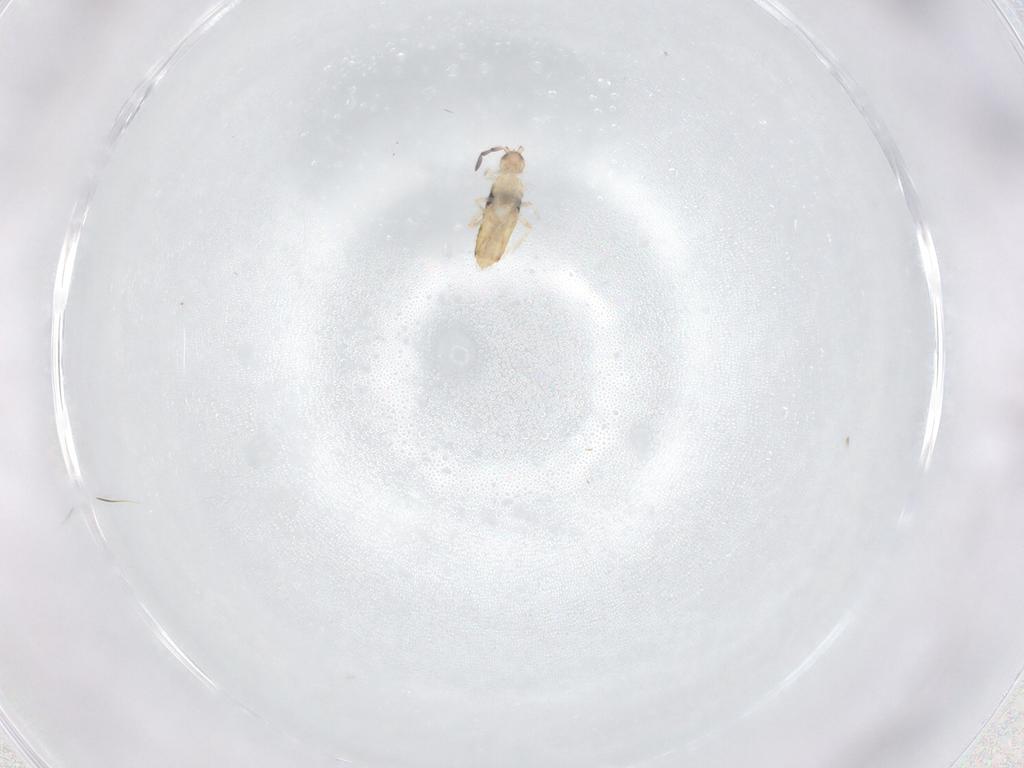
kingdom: Animalia
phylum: Arthropoda
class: Collembola
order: Entomobryomorpha
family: Entomobryidae
